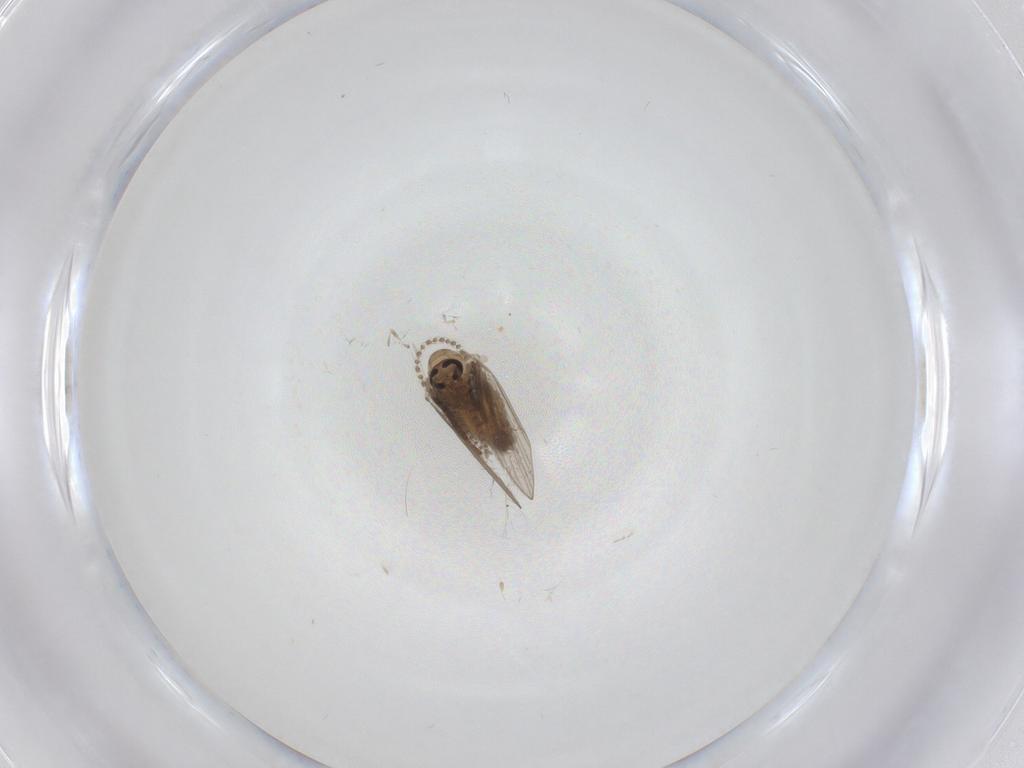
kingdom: Animalia
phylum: Arthropoda
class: Insecta
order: Diptera
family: Cecidomyiidae
